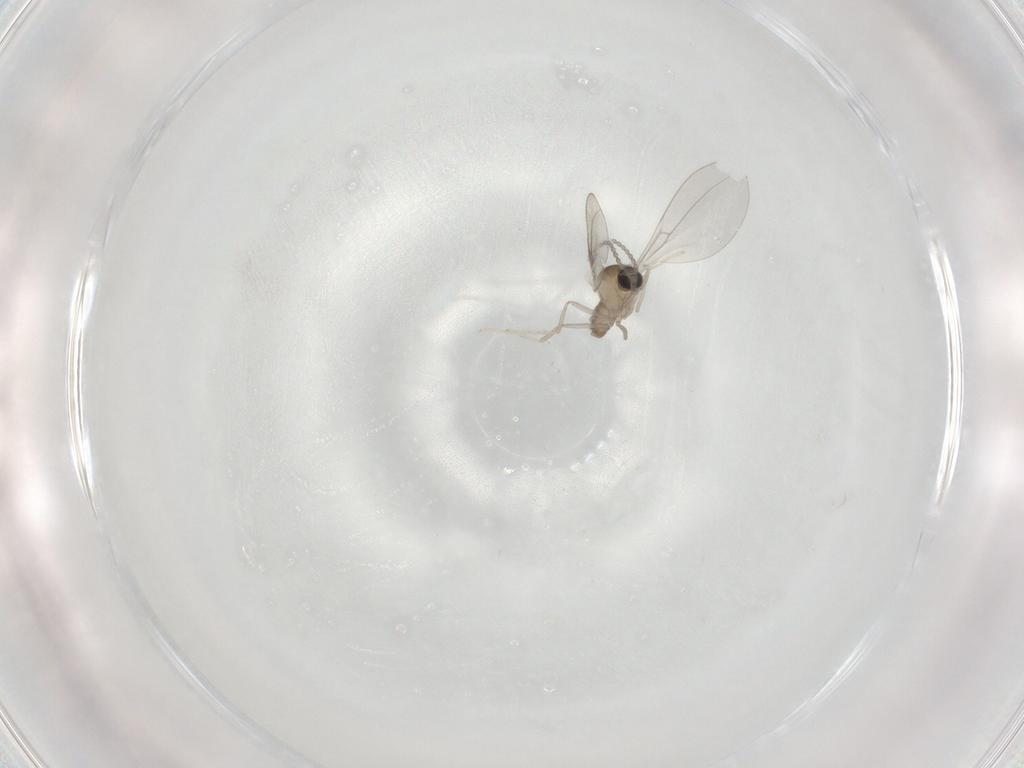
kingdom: Animalia
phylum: Arthropoda
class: Insecta
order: Diptera
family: Cecidomyiidae
